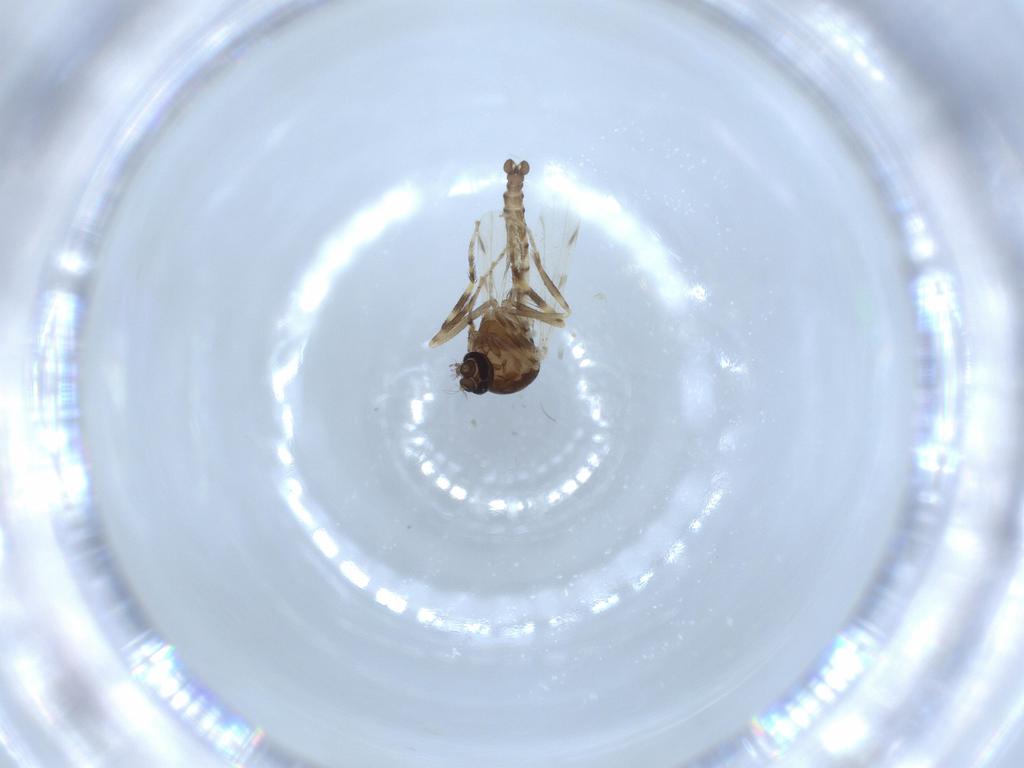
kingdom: Animalia
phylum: Arthropoda
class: Insecta
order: Diptera
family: Ceratopogonidae
